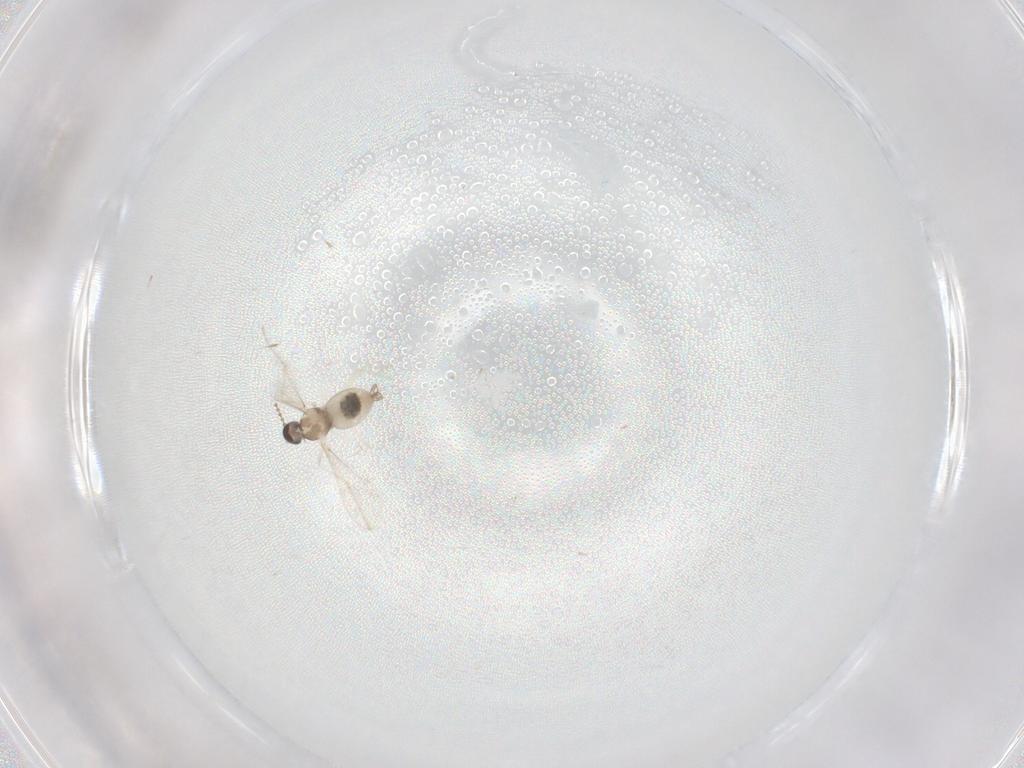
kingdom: Animalia
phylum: Arthropoda
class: Insecta
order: Diptera
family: Cecidomyiidae
